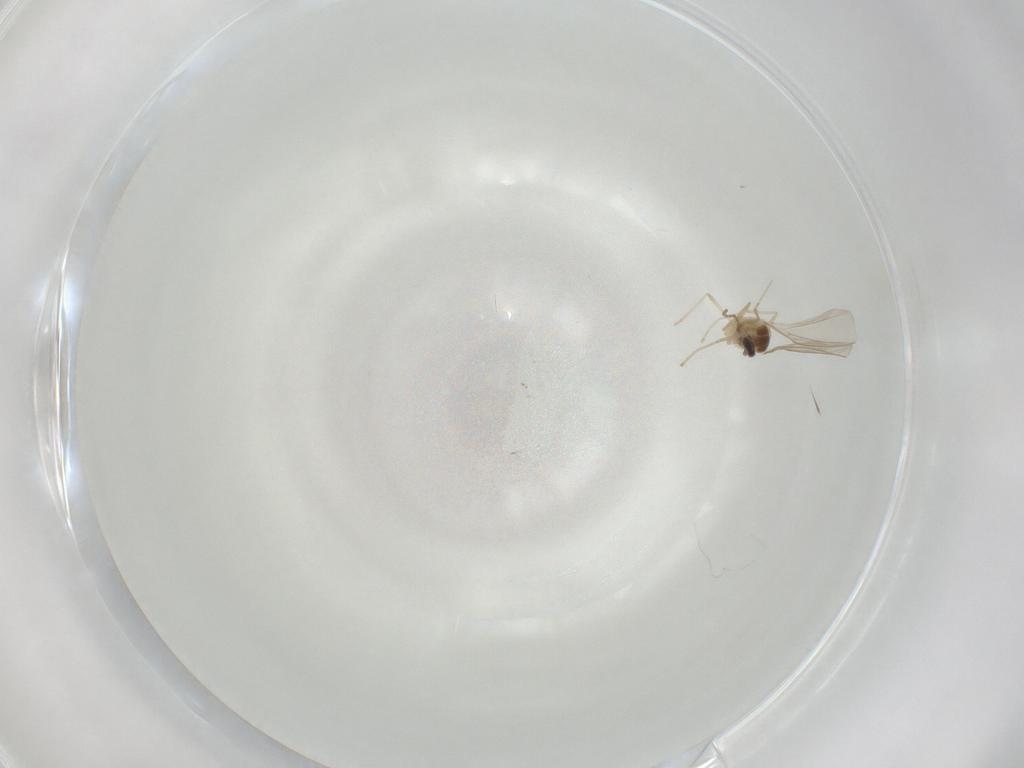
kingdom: Animalia
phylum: Arthropoda
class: Insecta
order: Diptera
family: Cecidomyiidae
